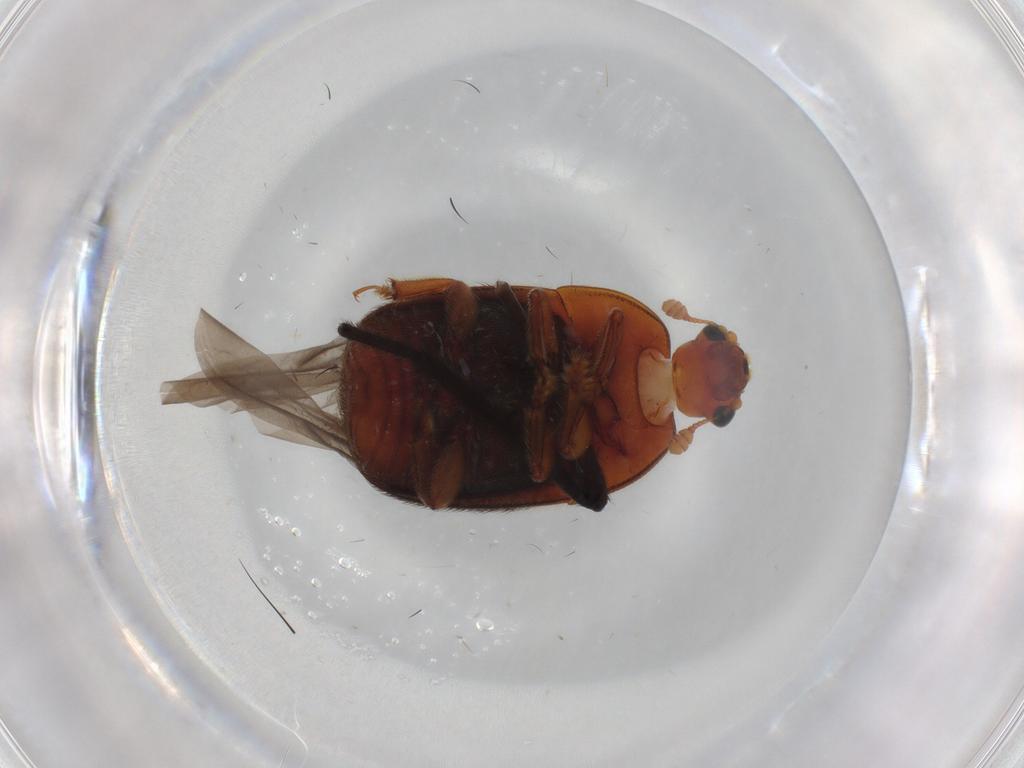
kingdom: Animalia
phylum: Arthropoda
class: Insecta
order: Coleoptera
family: Nitidulidae
